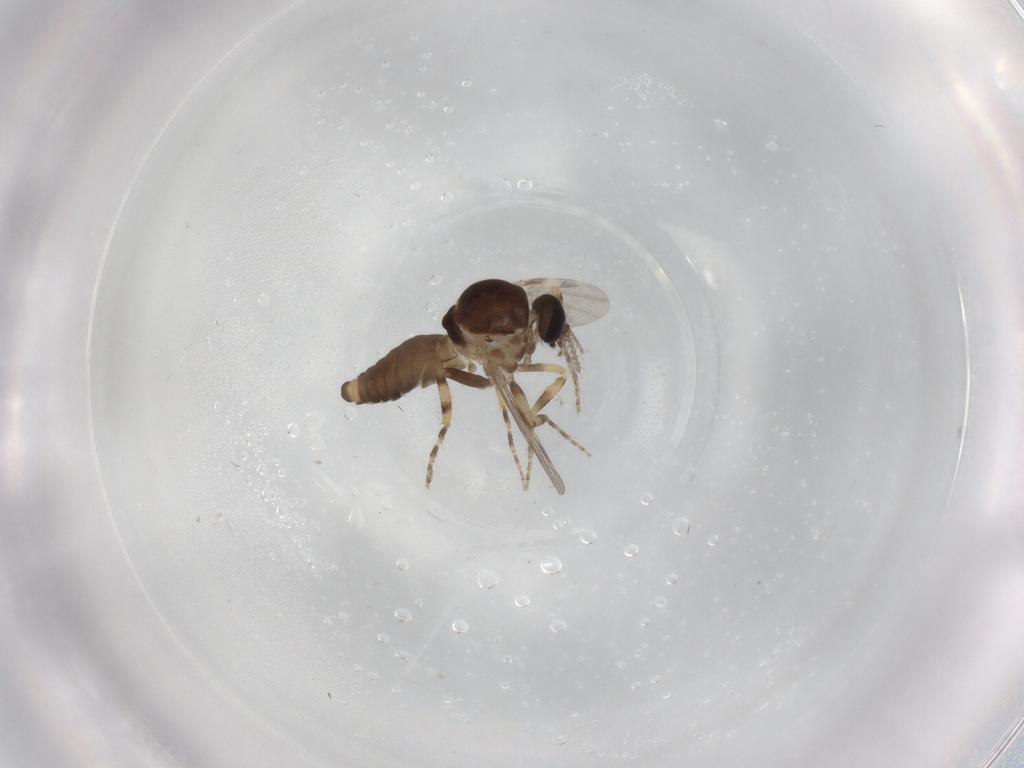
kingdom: Animalia
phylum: Arthropoda
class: Insecta
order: Diptera
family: Ceratopogonidae
